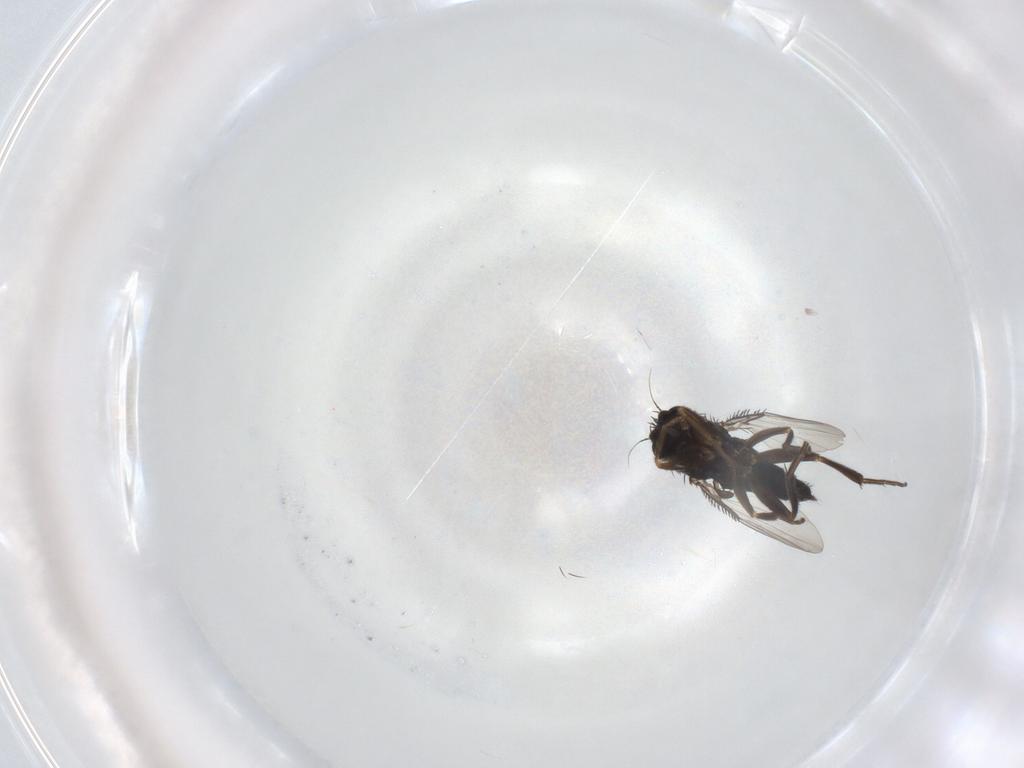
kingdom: Animalia
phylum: Arthropoda
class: Insecta
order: Diptera
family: Phoridae
